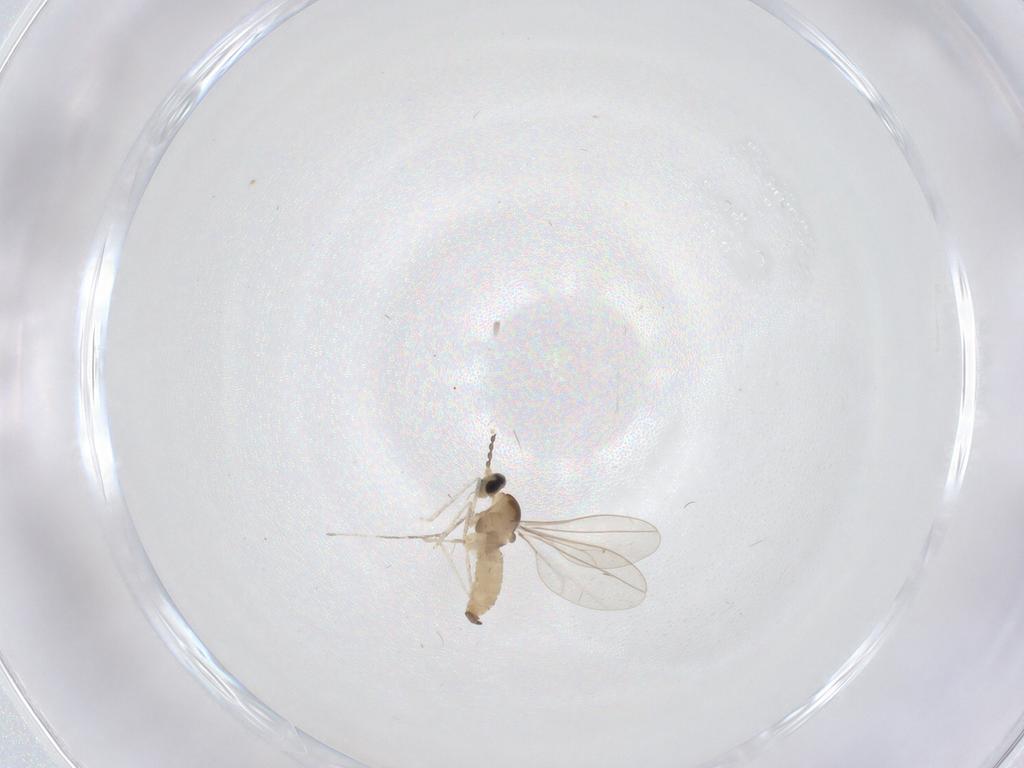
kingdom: Animalia
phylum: Arthropoda
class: Insecta
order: Diptera
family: Cecidomyiidae
